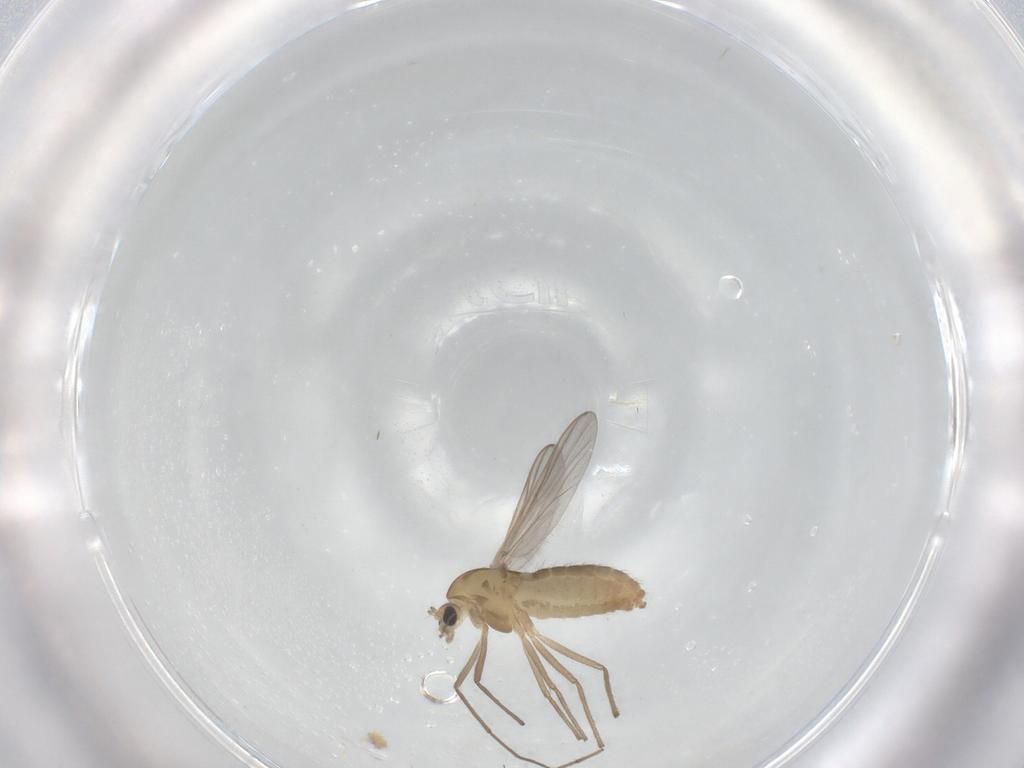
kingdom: Animalia
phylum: Arthropoda
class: Insecta
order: Diptera
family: Chironomidae
